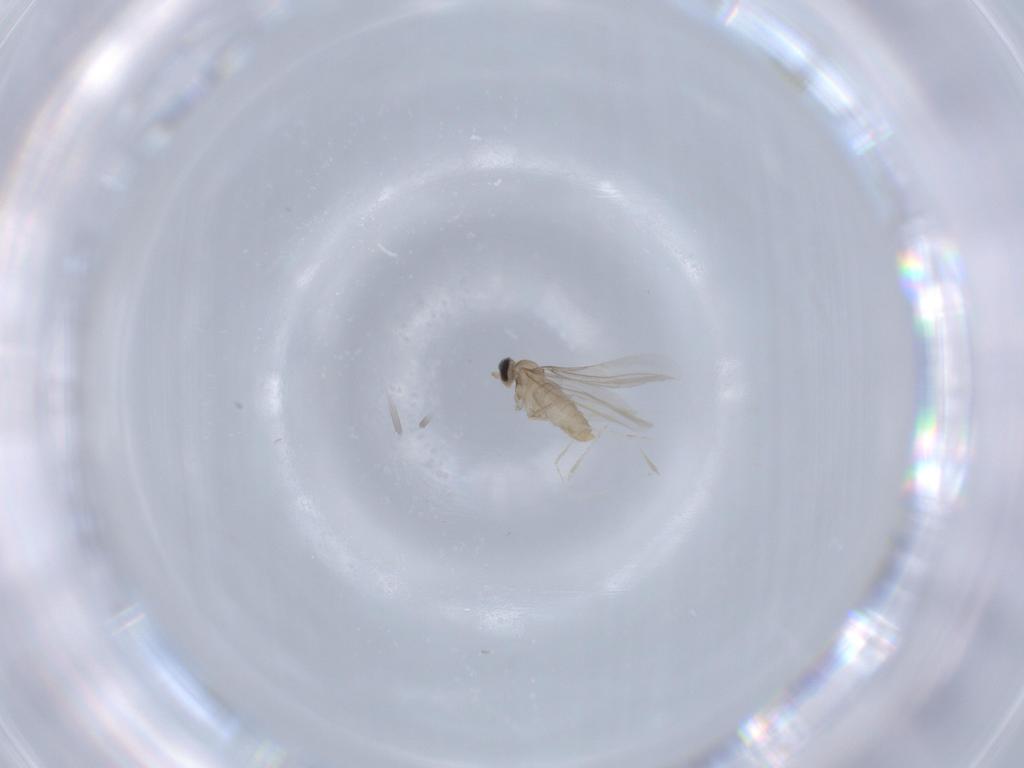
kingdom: Animalia
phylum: Arthropoda
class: Insecta
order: Diptera
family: Cecidomyiidae
